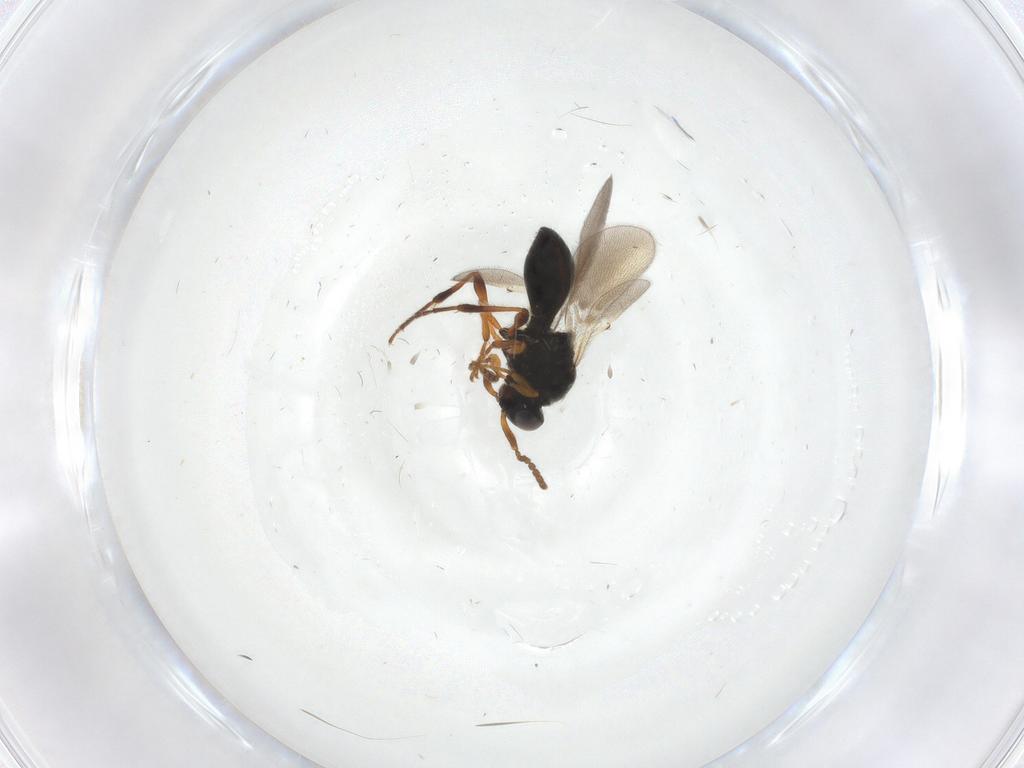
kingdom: Animalia
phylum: Arthropoda
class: Insecta
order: Hymenoptera
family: Platygastridae
